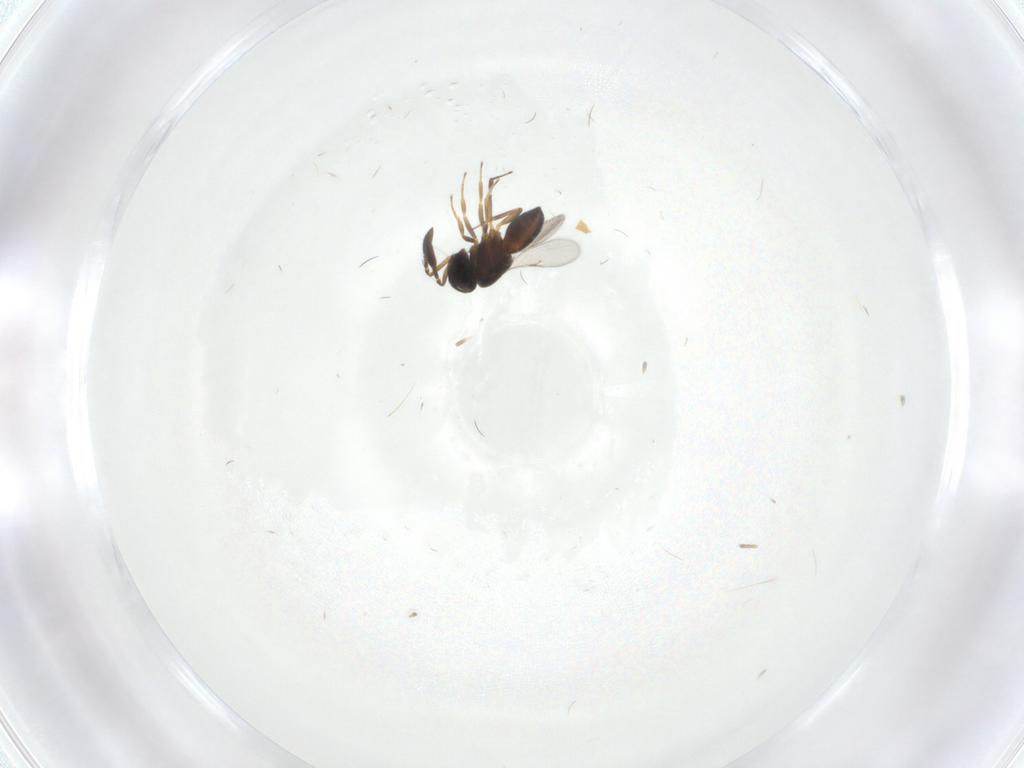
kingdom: Animalia
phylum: Arthropoda
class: Insecta
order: Hymenoptera
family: Scelionidae
